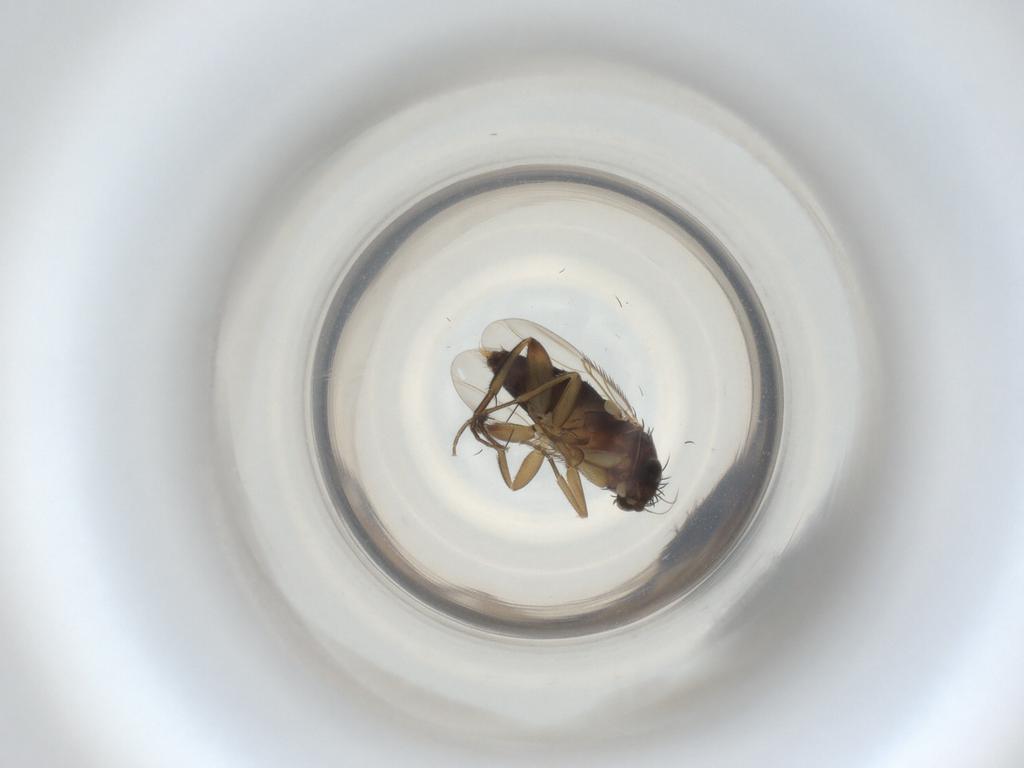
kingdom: Animalia
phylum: Arthropoda
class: Insecta
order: Diptera
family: Phoridae
